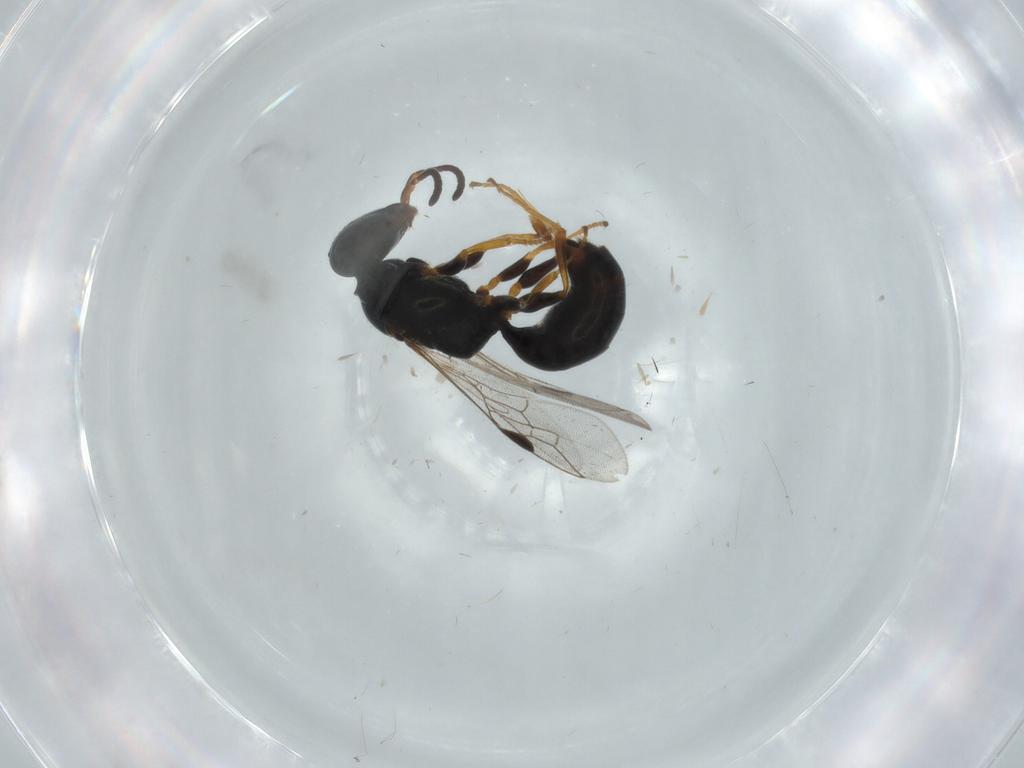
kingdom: Animalia
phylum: Arthropoda
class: Insecta
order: Hymenoptera
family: Pemphredonidae
